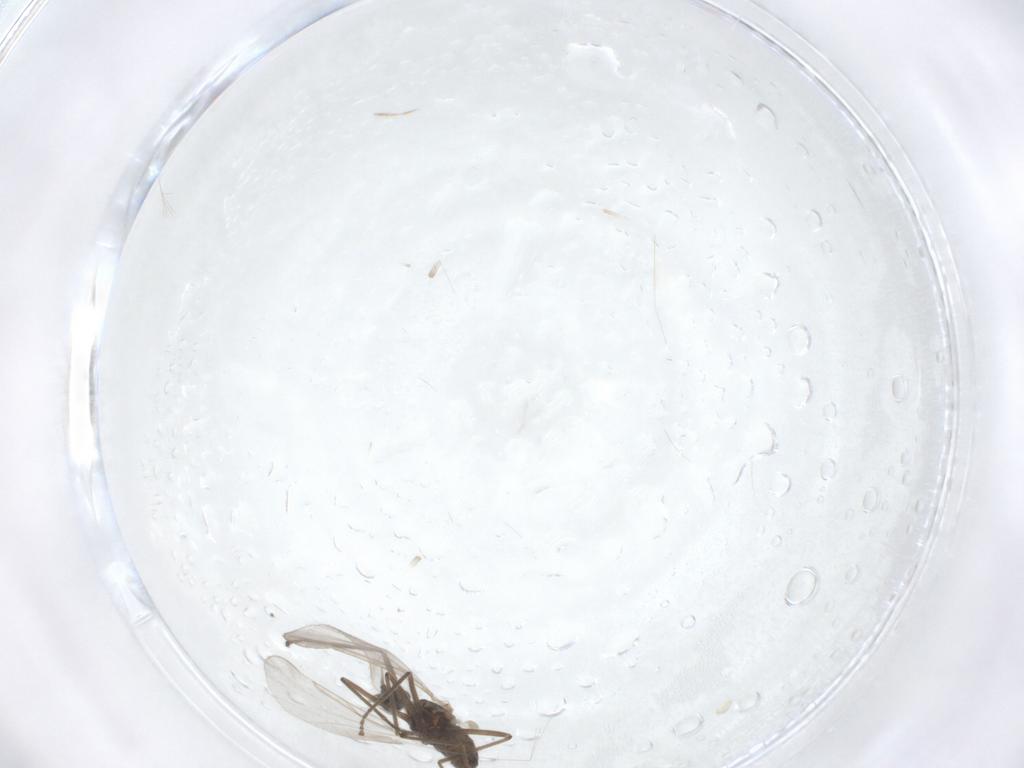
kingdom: Animalia
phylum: Arthropoda
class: Insecta
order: Diptera
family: Cecidomyiidae
